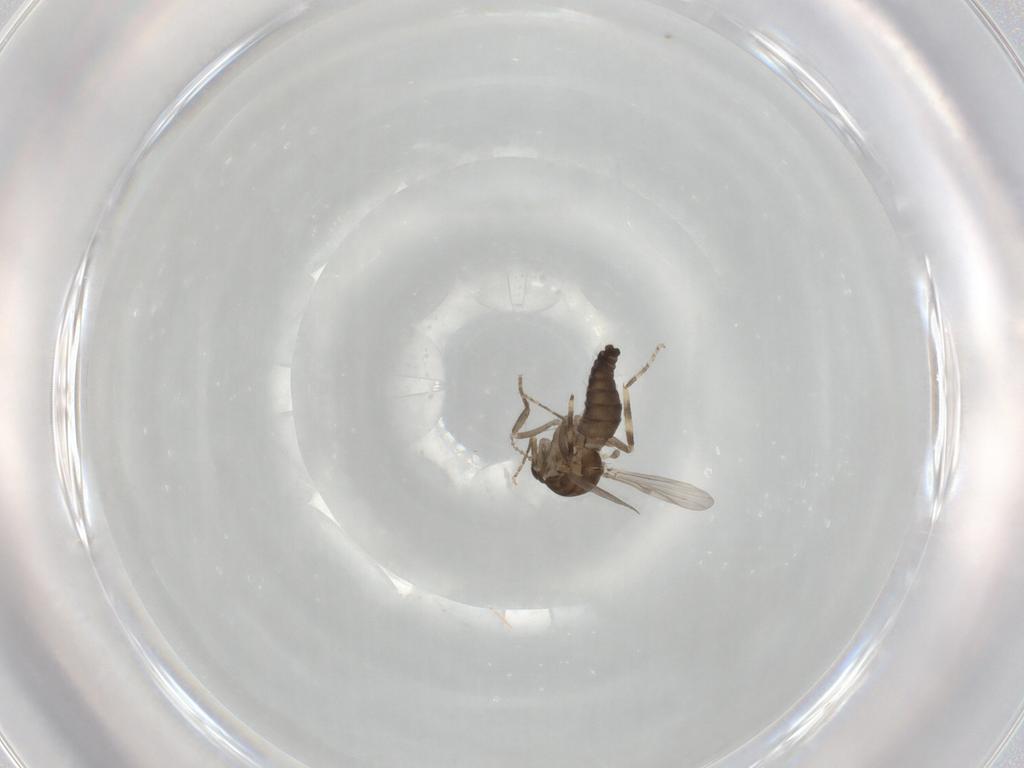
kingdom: Animalia
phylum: Arthropoda
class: Insecta
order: Diptera
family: Ceratopogonidae
